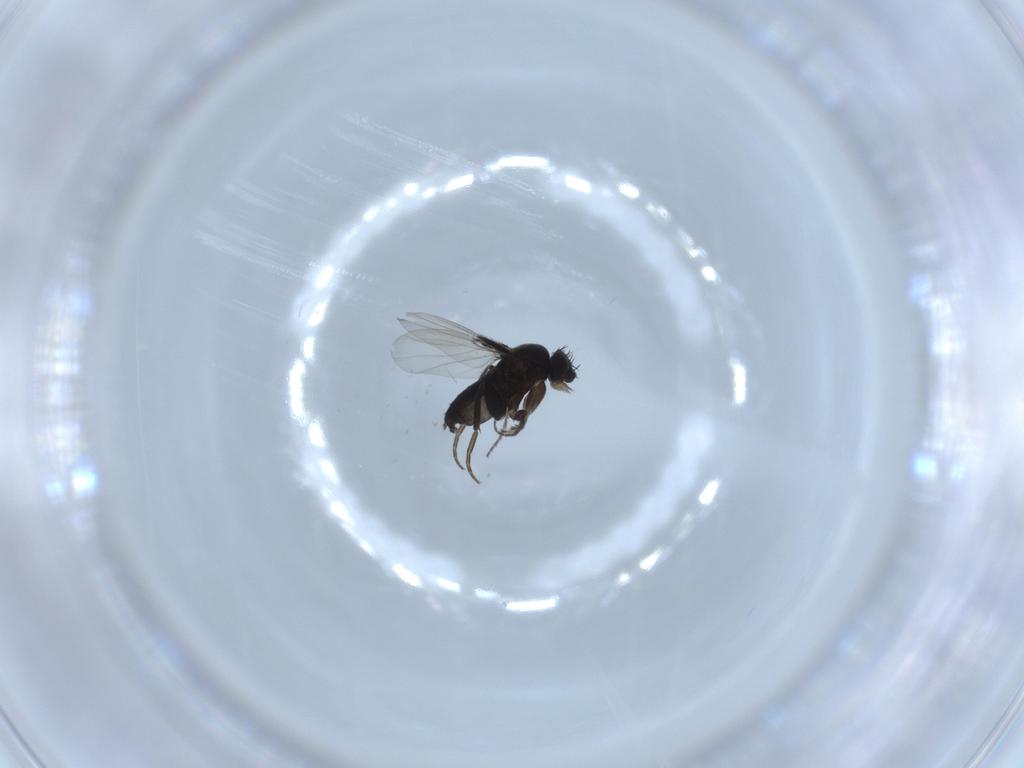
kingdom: Animalia
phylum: Arthropoda
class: Insecta
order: Diptera
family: Phoridae
